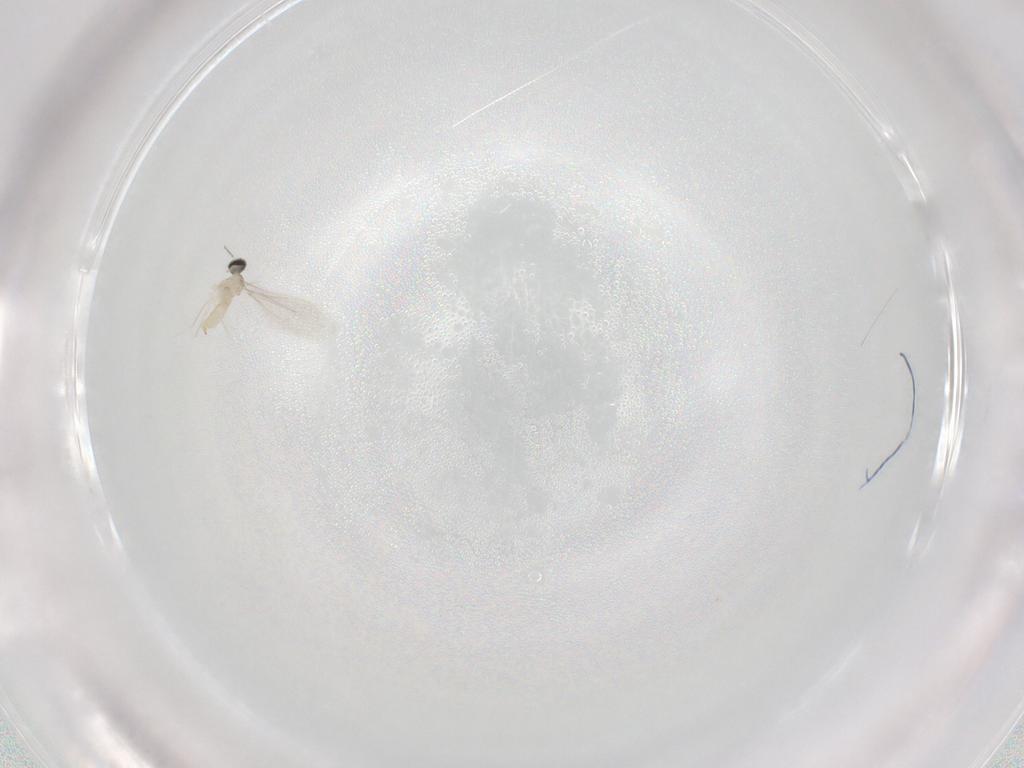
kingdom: Animalia
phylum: Arthropoda
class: Insecta
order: Diptera
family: Cecidomyiidae
